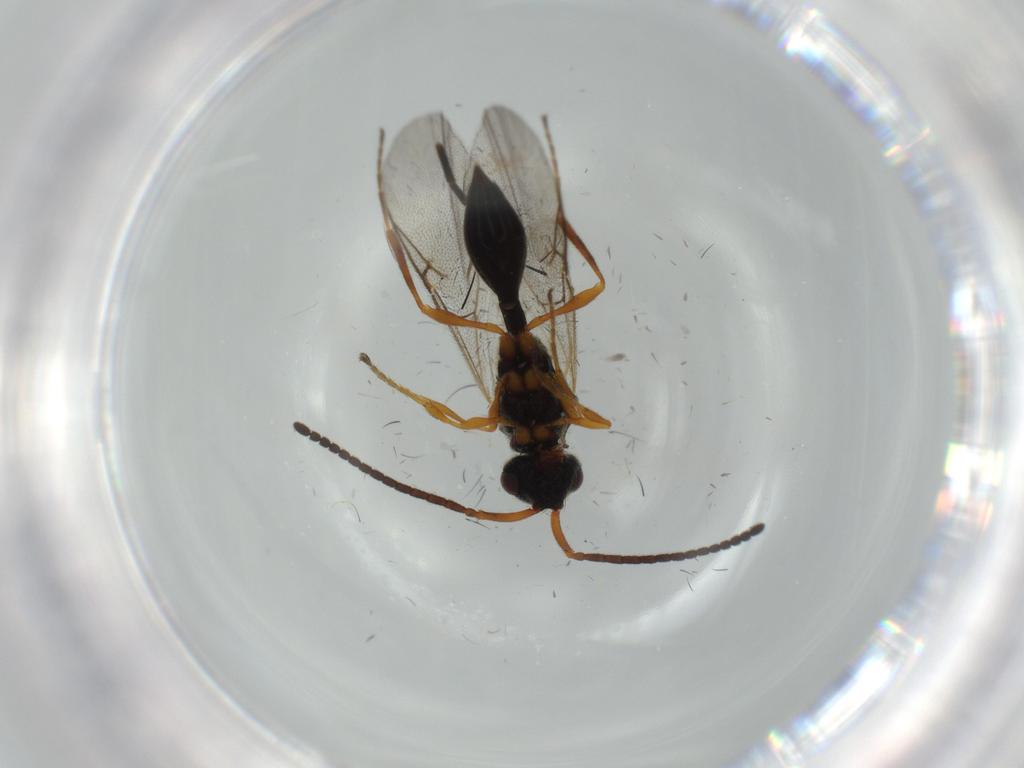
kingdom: Animalia
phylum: Arthropoda
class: Insecta
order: Hymenoptera
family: Diapriidae
